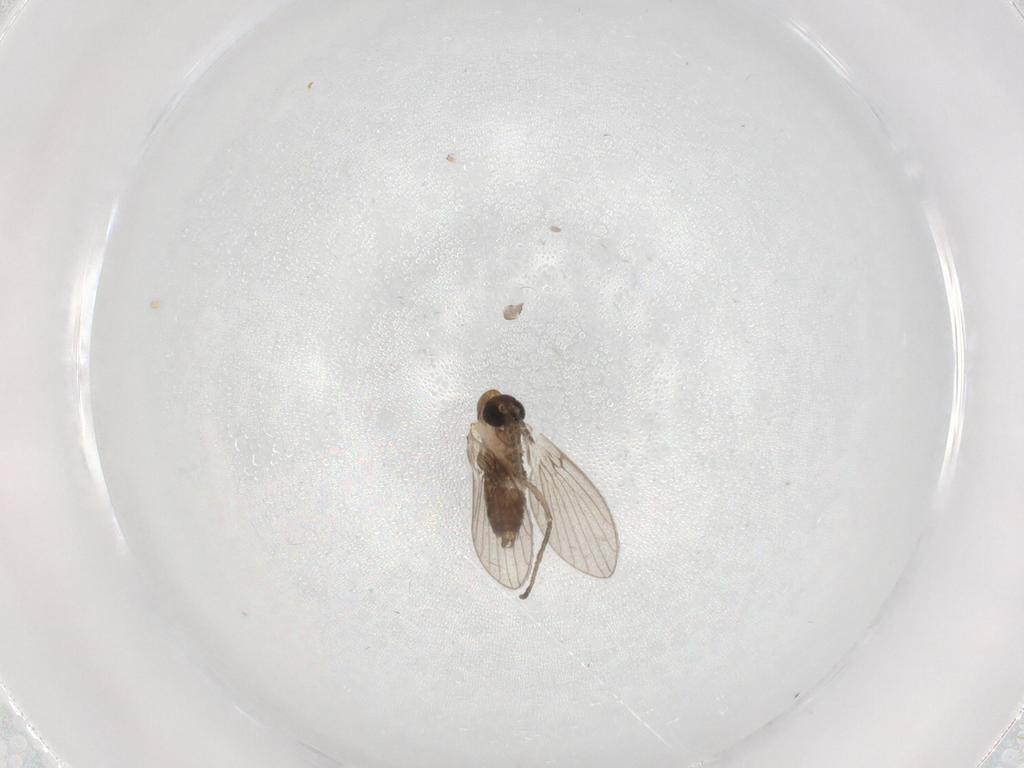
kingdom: Animalia
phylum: Arthropoda
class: Insecta
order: Diptera
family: Psychodidae
